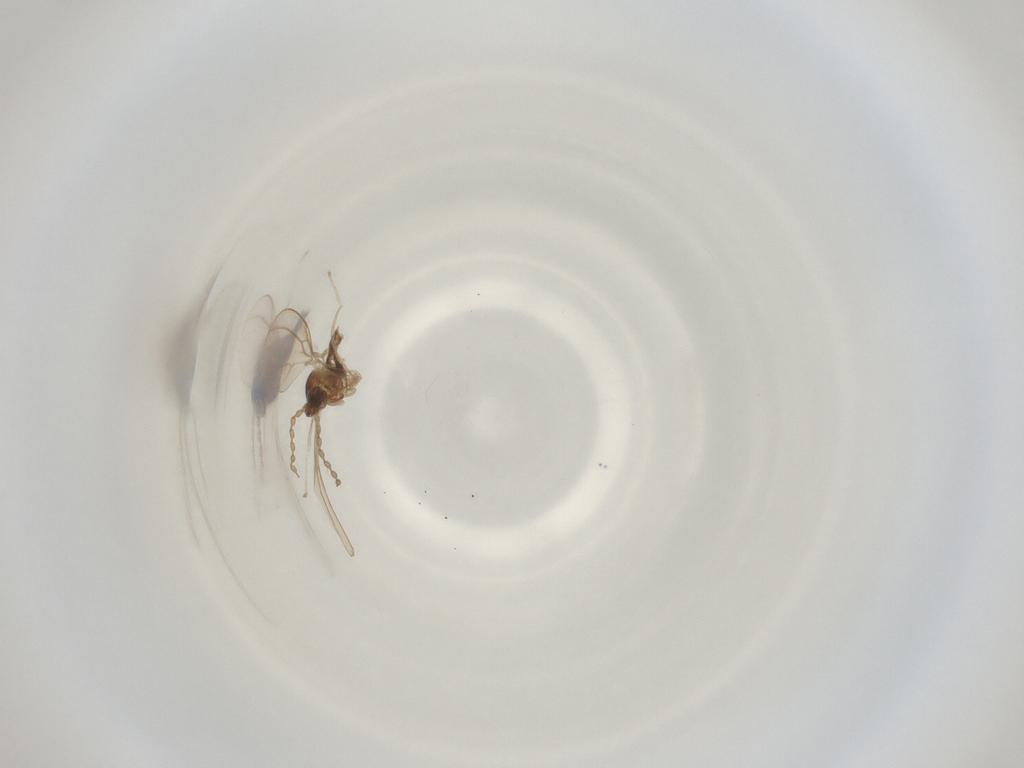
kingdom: Animalia
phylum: Arthropoda
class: Insecta
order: Diptera
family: Cecidomyiidae
